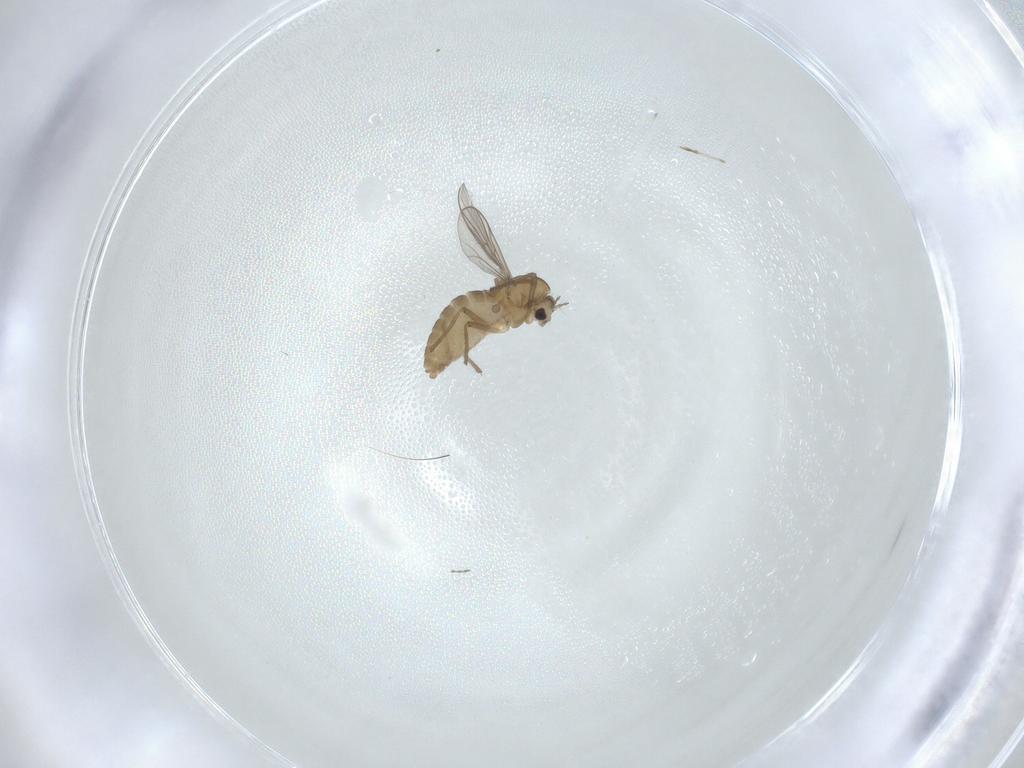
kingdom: Animalia
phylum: Arthropoda
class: Insecta
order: Diptera
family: Chironomidae
